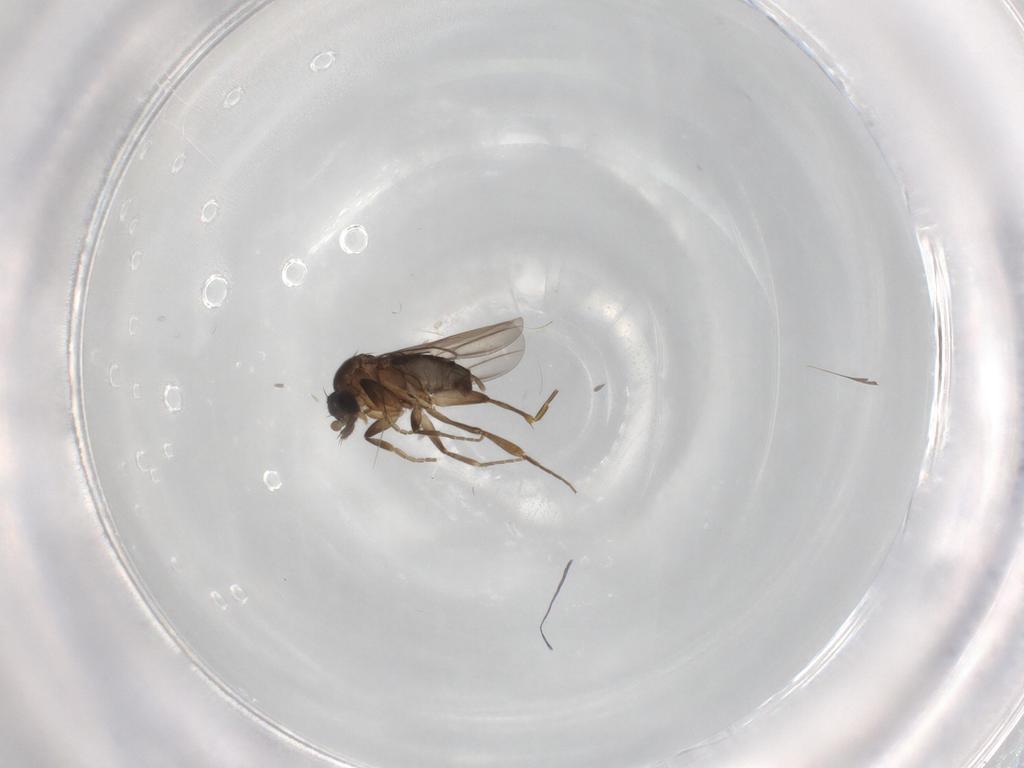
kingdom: Animalia
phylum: Arthropoda
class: Insecta
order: Diptera
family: Phoridae
